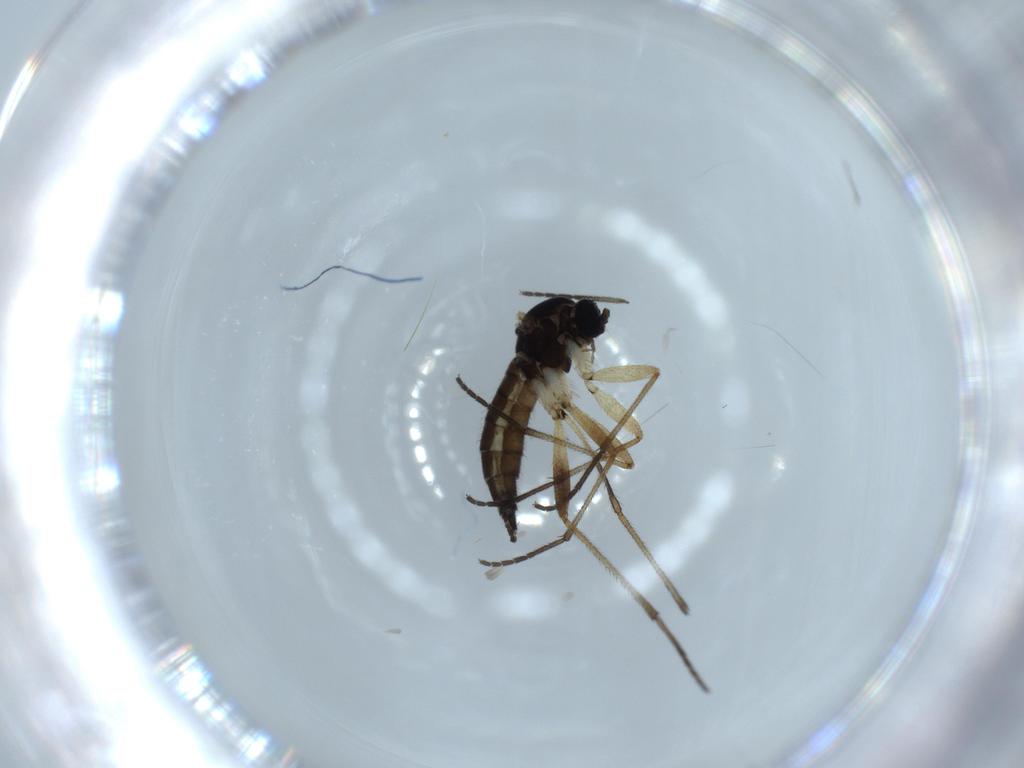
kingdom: Animalia
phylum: Arthropoda
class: Insecta
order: Diptera
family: Sciaridae
